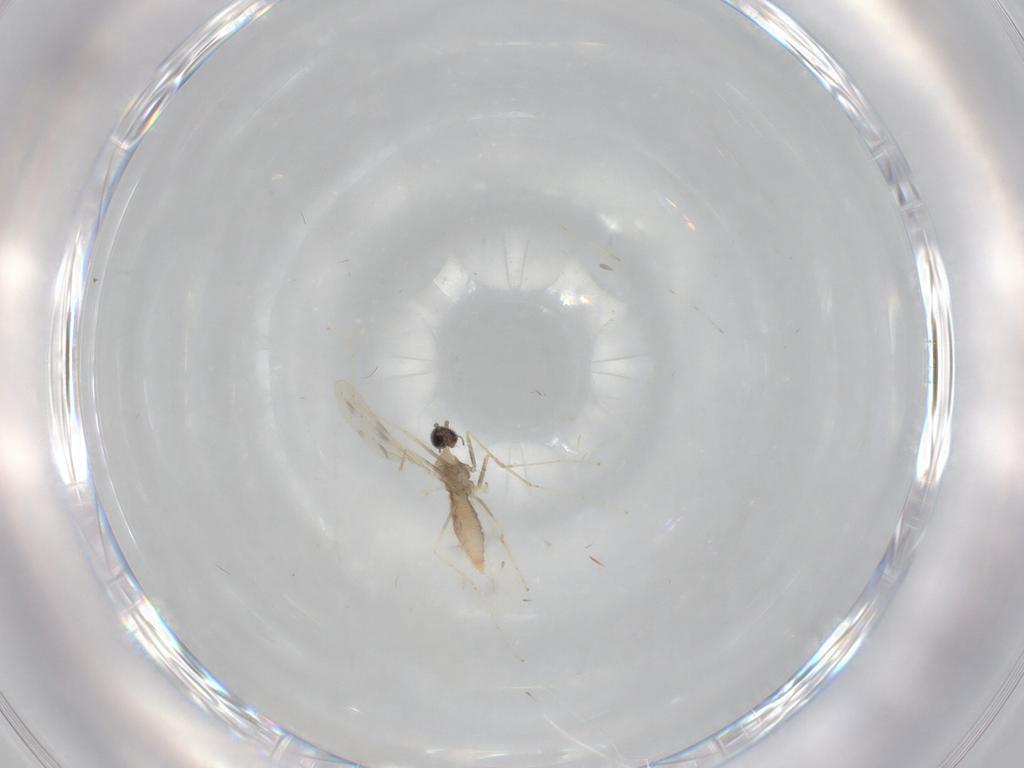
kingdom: Animalia
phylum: Arthropoda
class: Insecta
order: Diptera
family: Cecidomyiidae
